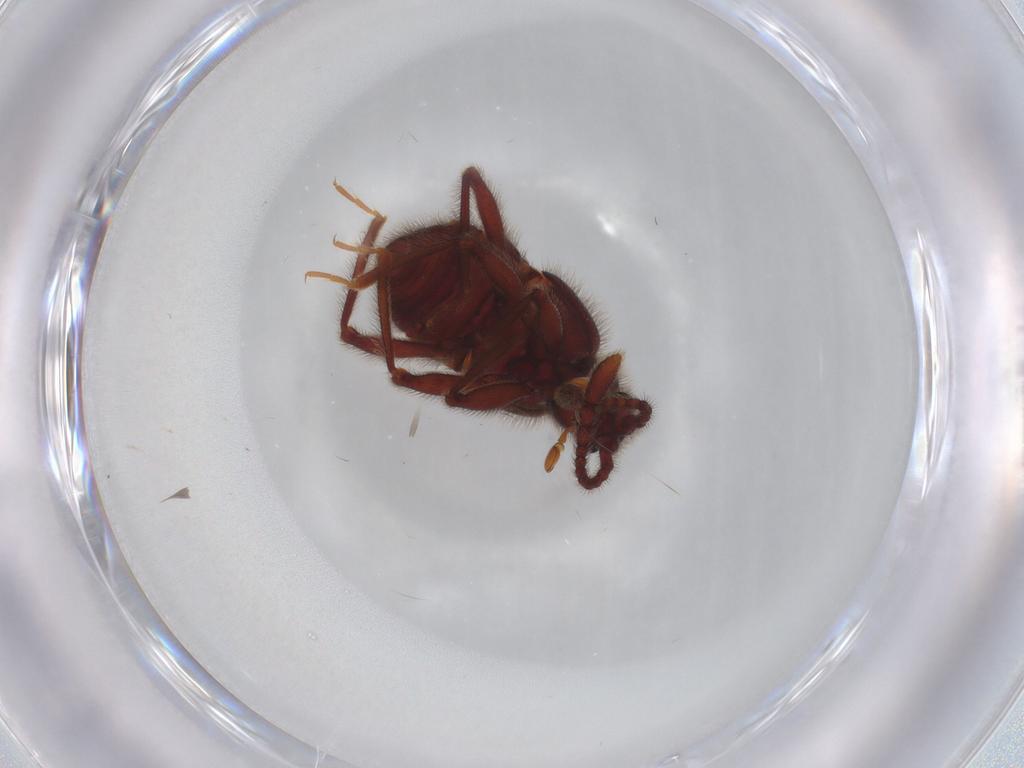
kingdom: Animalia
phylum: Arthropoda
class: Insecta
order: Coleoptera
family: Staphylinidae
